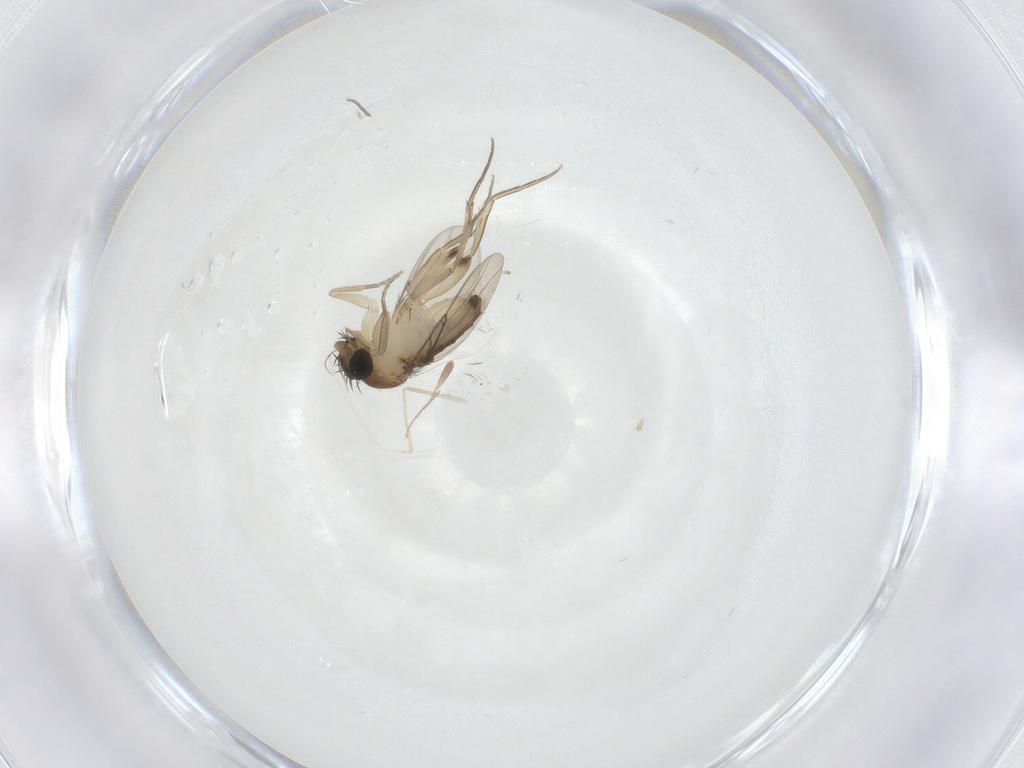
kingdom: Animalia
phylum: Arthropoda
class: Insecta
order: Diptera
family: Phoridae
